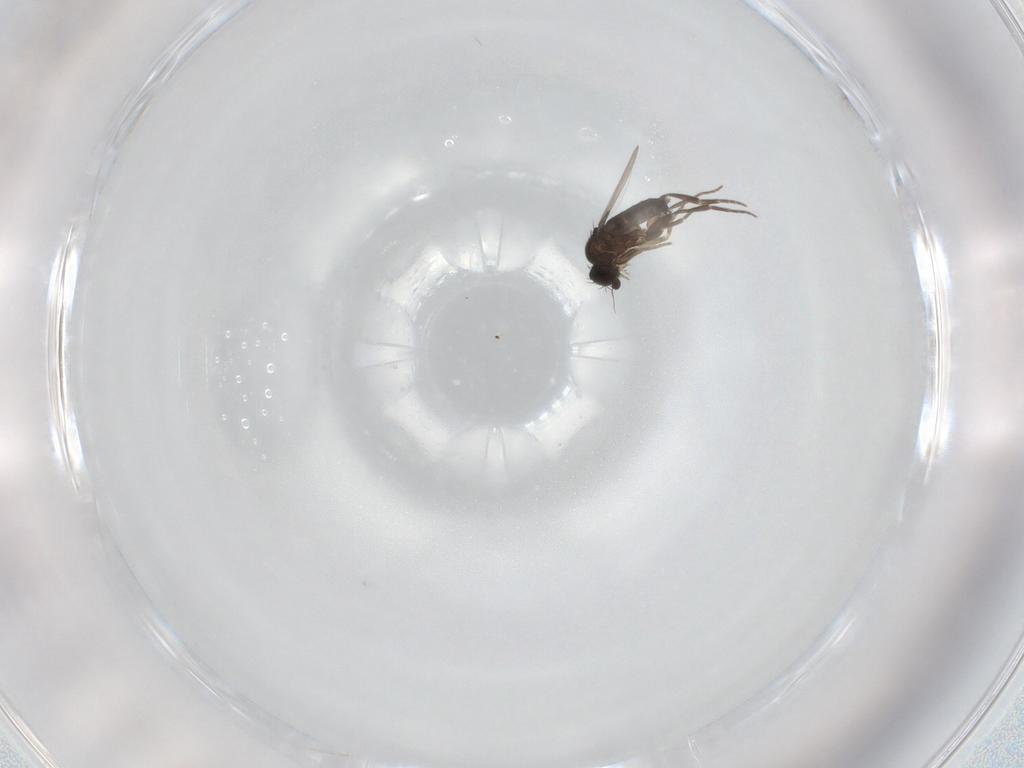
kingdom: Animalia
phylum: Arthropoda
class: Insecta
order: Diptera
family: Phoridae
